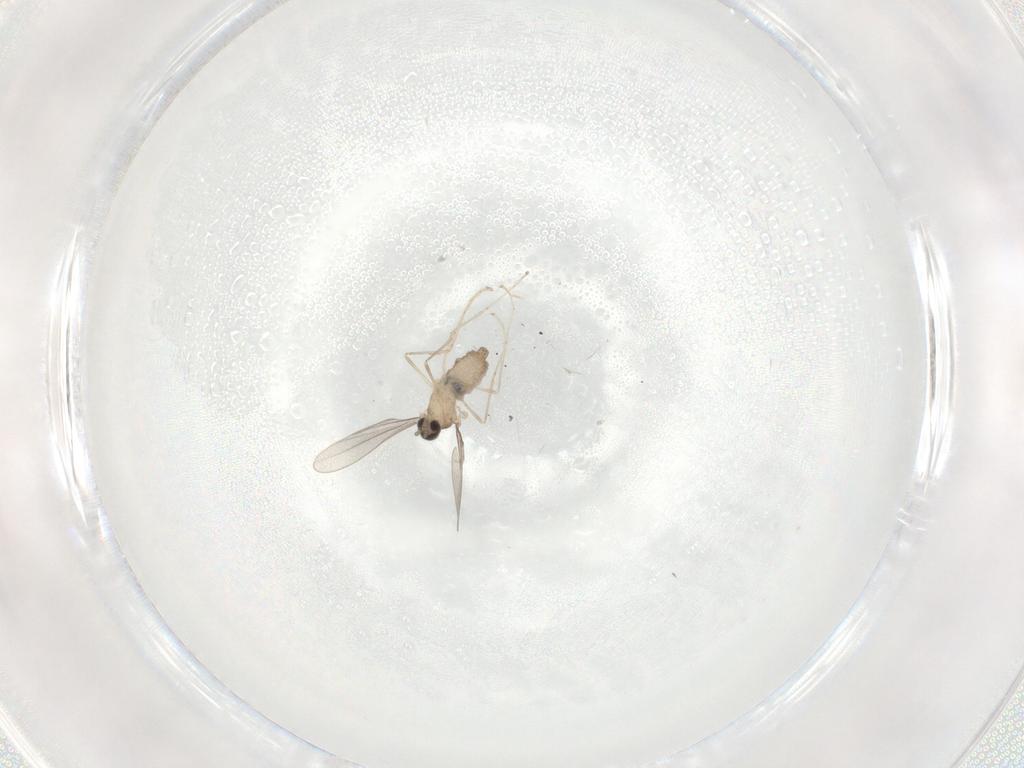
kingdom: Animalia
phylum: Arthropoda
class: Insecta
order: Diptera
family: Cecidomyiidae
